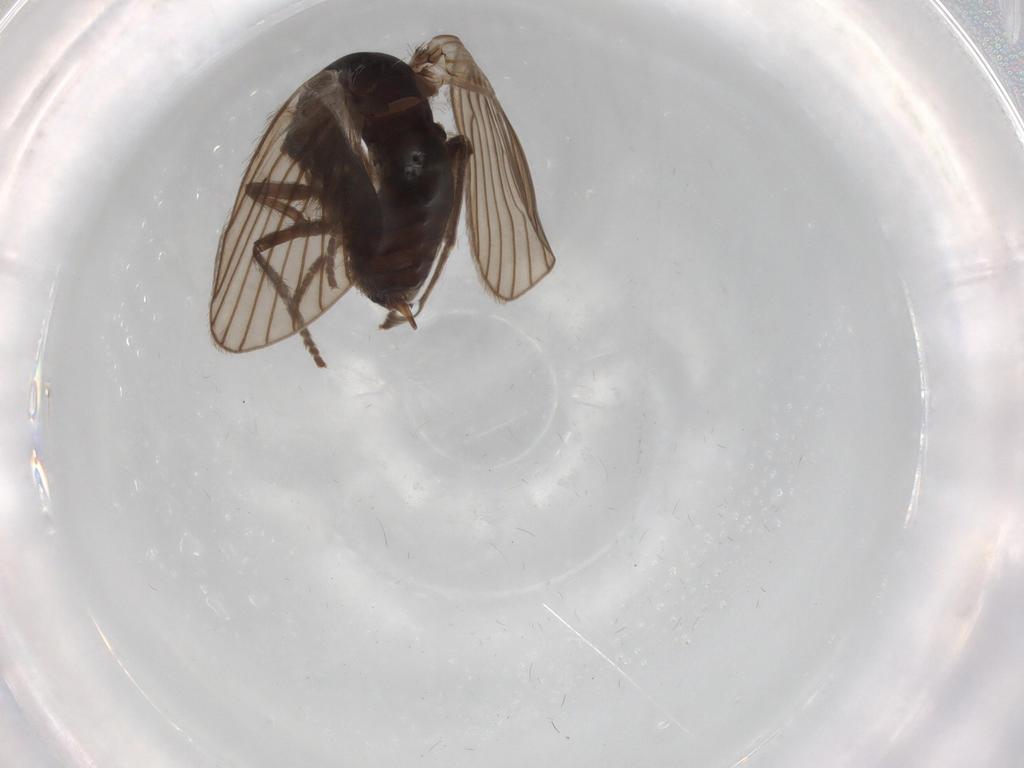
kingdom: Animalia
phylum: Arthropoda
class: Insecta
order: Diptera
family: Psychodidae
